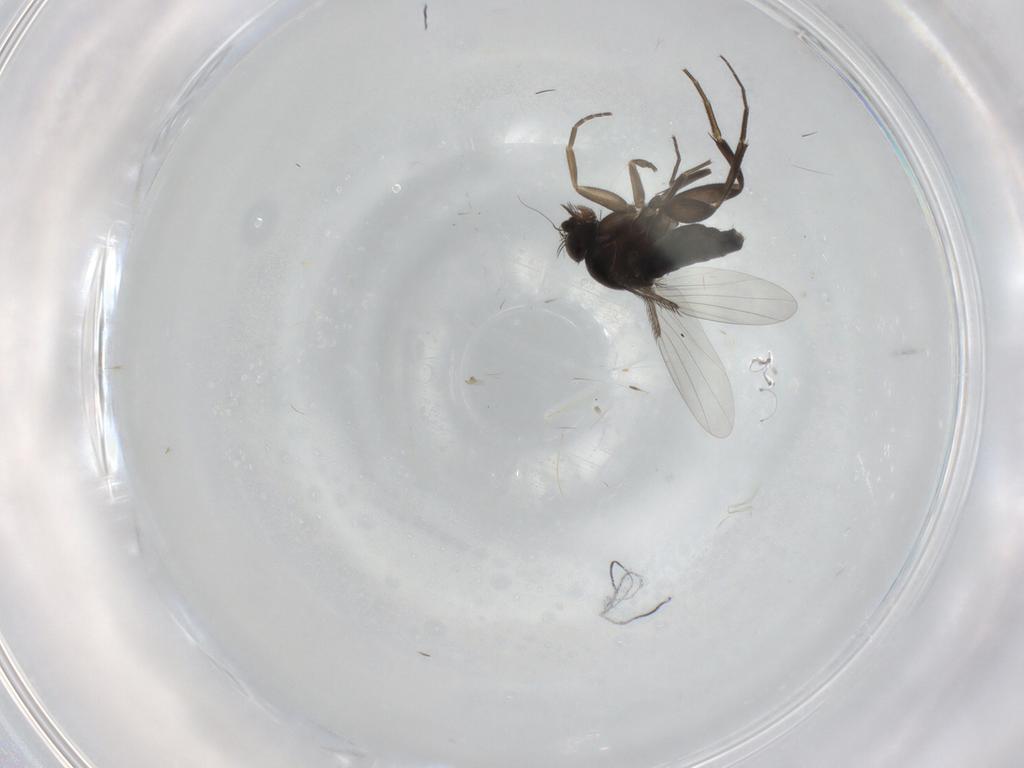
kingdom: Animalia
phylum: Arthropoda
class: Insecta
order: Diptera
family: Phoridae
